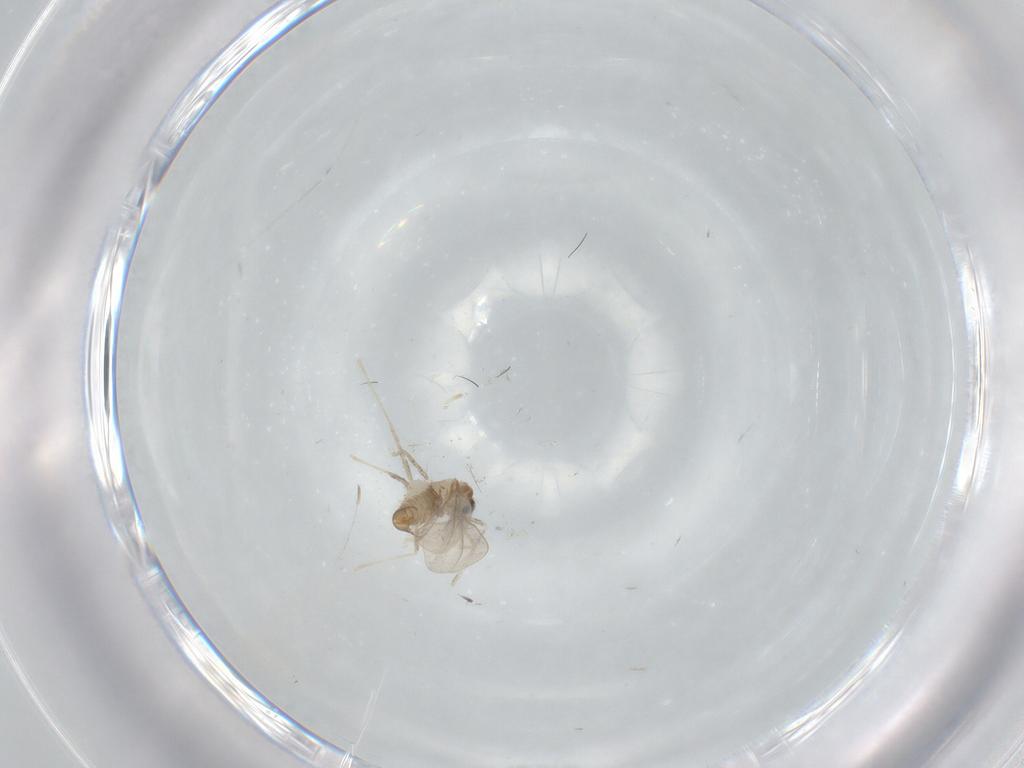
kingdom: Animalia
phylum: Arthropoda
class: Insecta
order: Diptera
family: Cecidomyiidae
